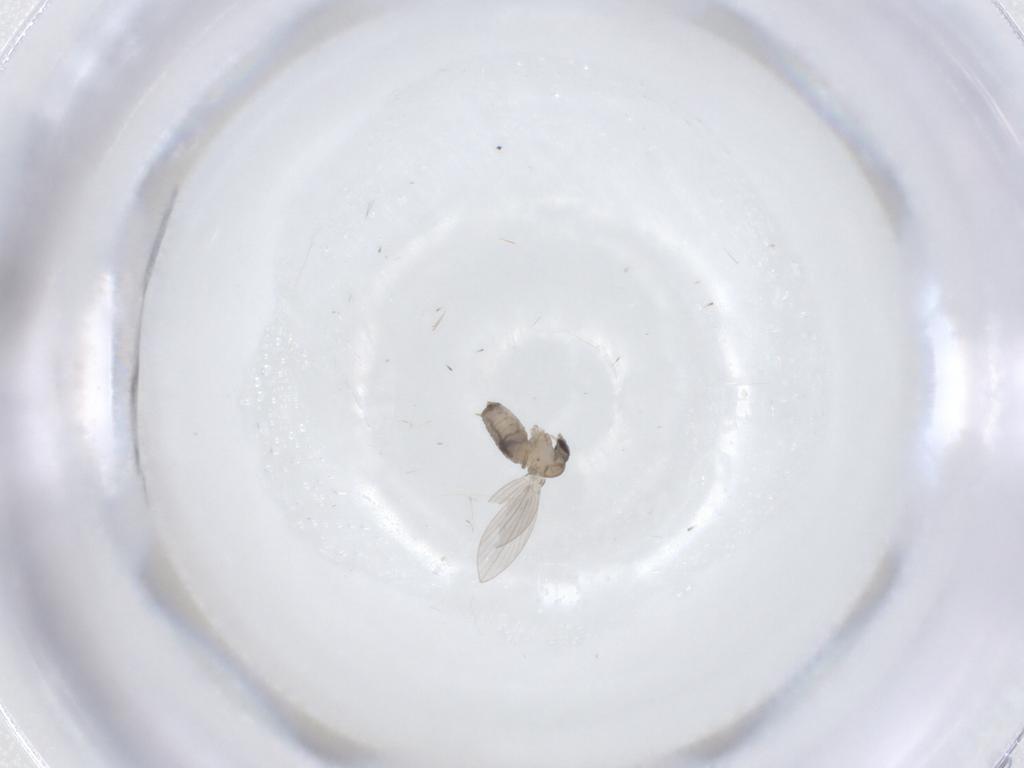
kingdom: Animalia
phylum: Arthropoda
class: Insecta
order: Diptera
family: Psychodidae
